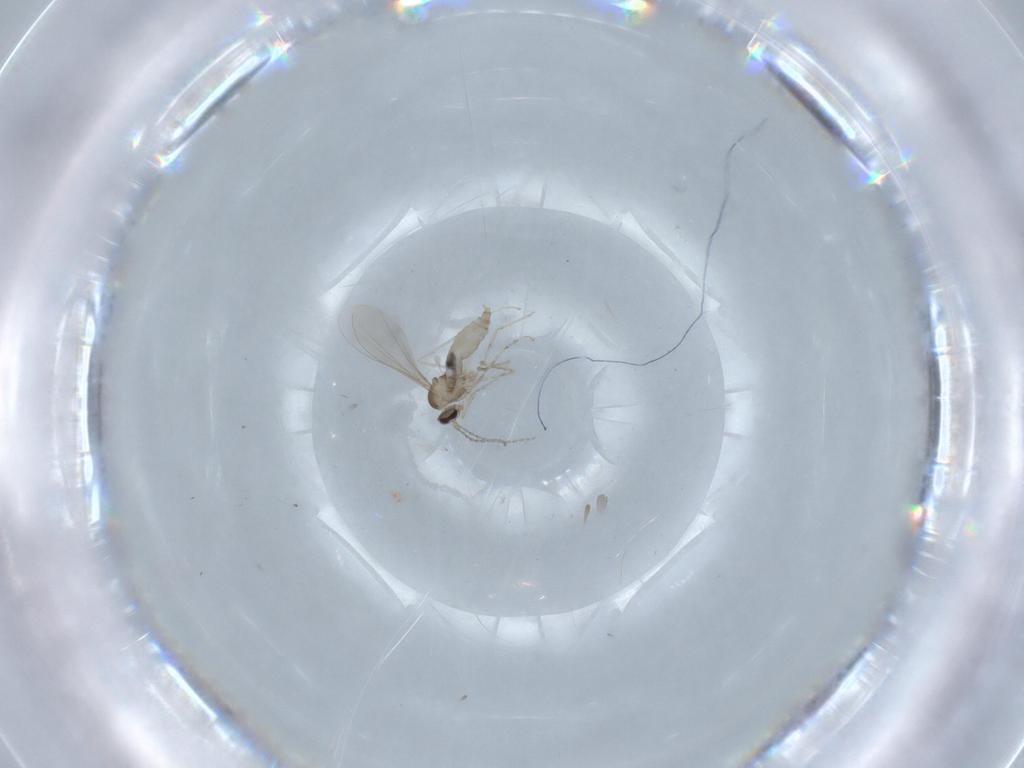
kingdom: Animalia
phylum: Arthropoda
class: Insecta
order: Diptera
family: Cecidomyiidae
